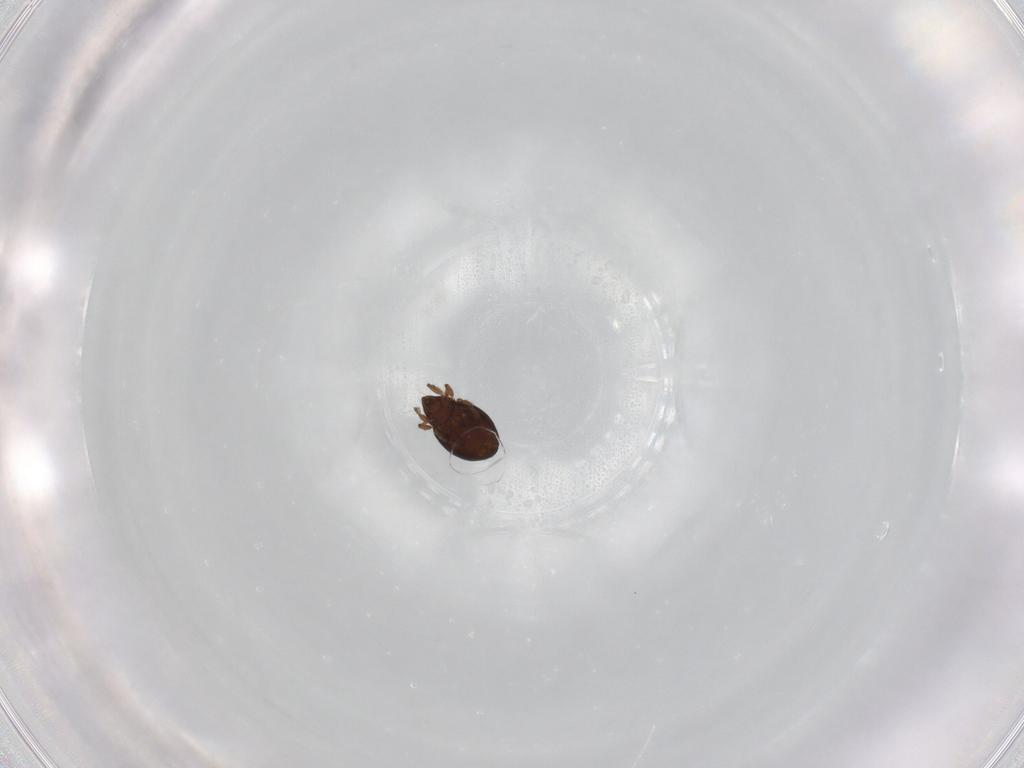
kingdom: Animalia
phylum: Arthropoda
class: Arachnida
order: Sarcoptiformes
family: Oribatulidae
